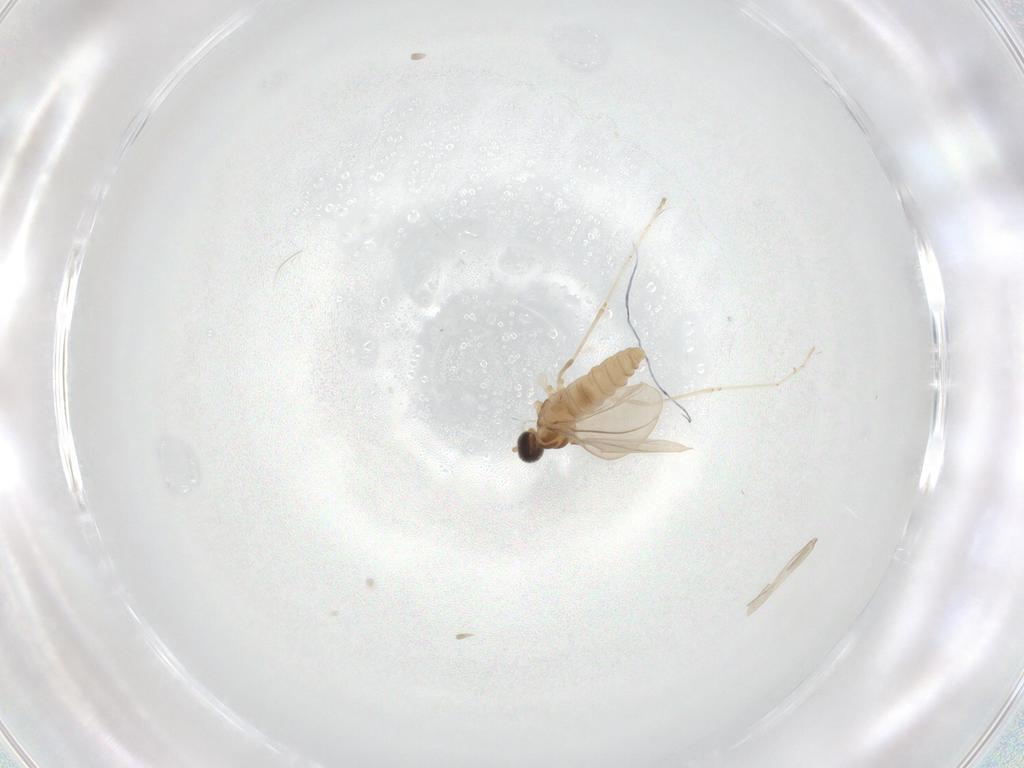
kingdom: Animalia
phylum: Arthropoda
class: Insecta
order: Diptera
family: Cecidomyiidae
